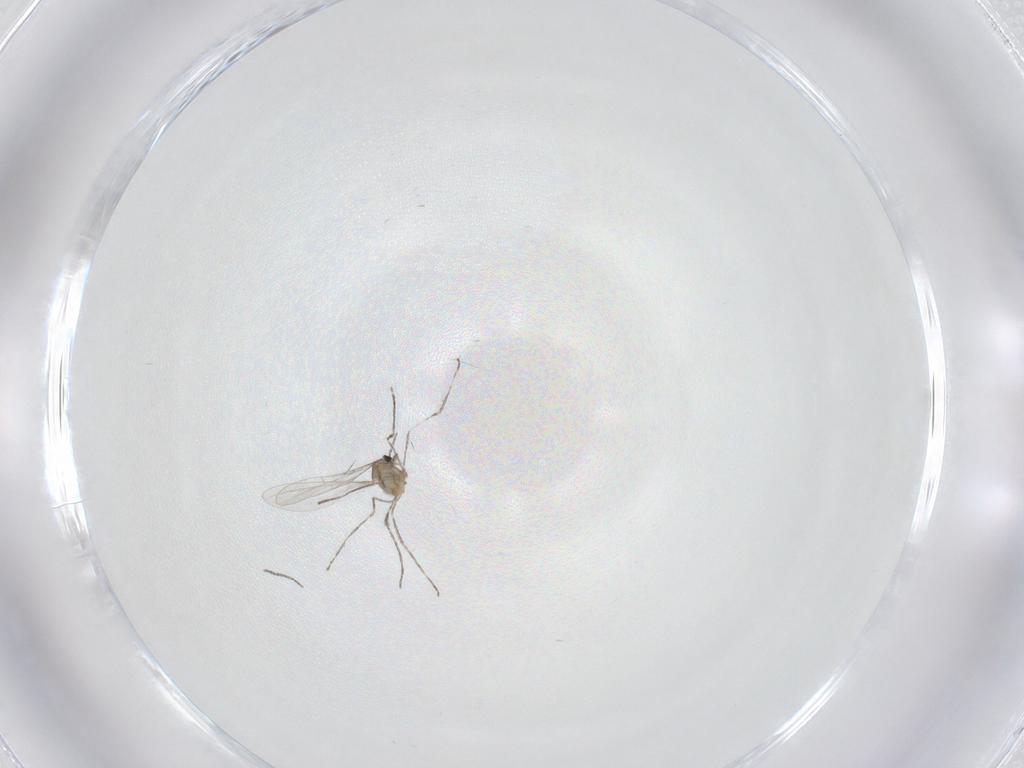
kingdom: Animalia
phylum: Arthropoda
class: Insecta
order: Diptera
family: Cecidomyiidae
